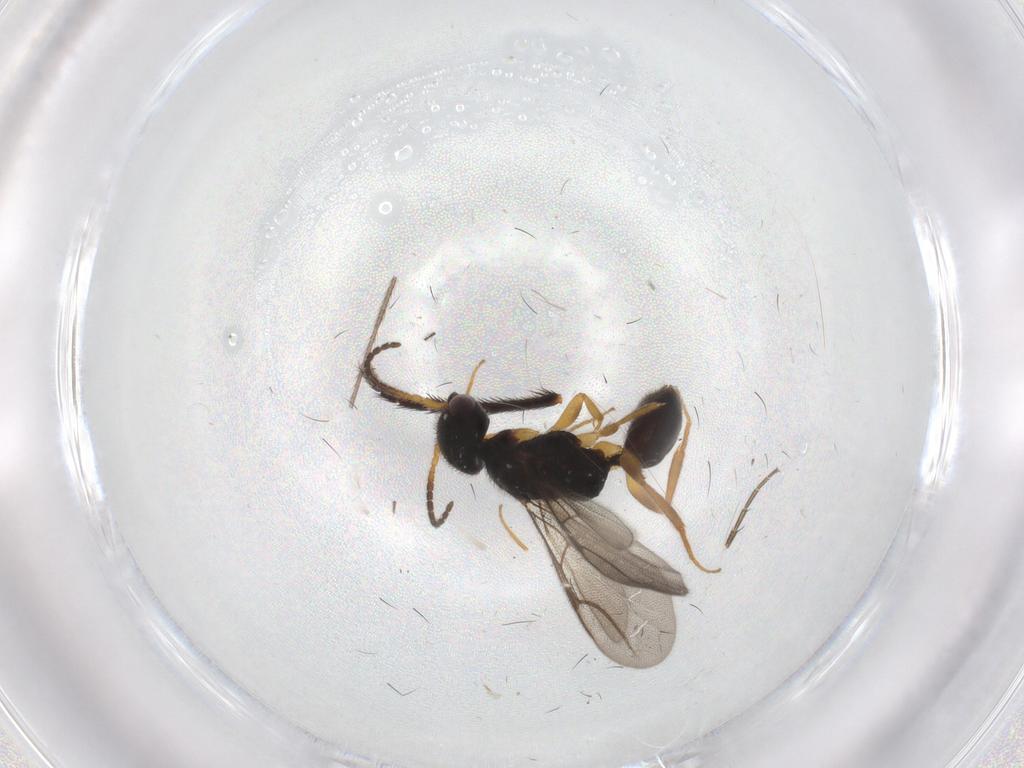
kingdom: Animalia
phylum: Arthropoda
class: Insecta
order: Hymenoptera
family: Bethylidae
